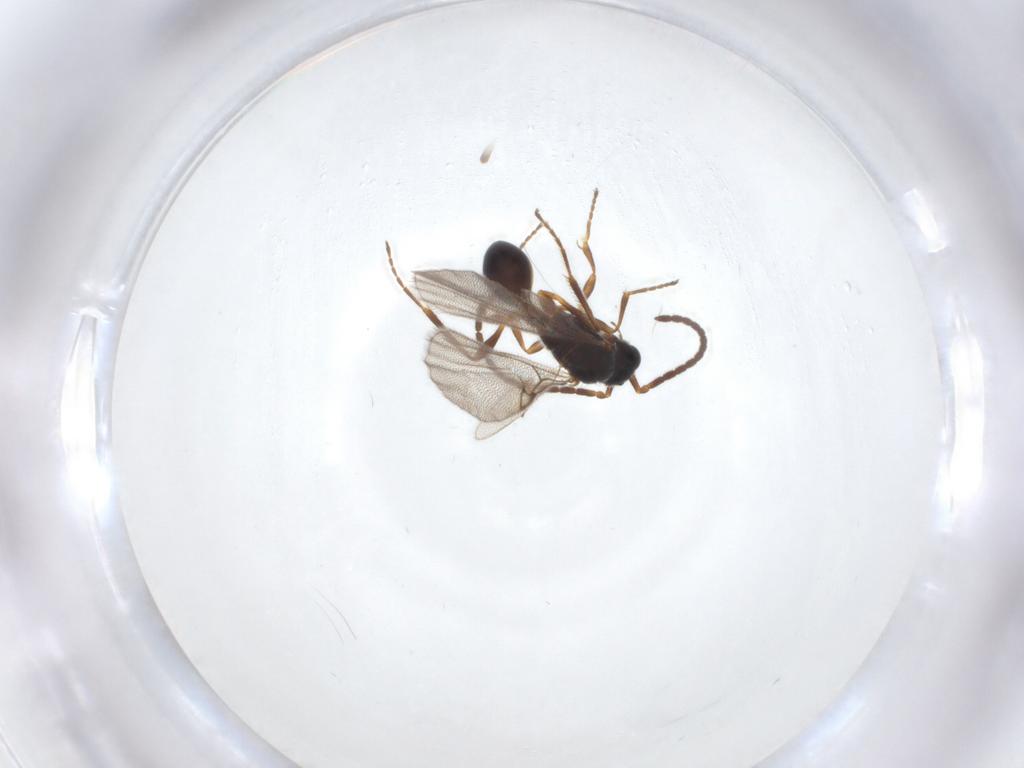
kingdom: Animalia
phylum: Arthropoda
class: Insecta
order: Hymenoptera
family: Diapriidae
